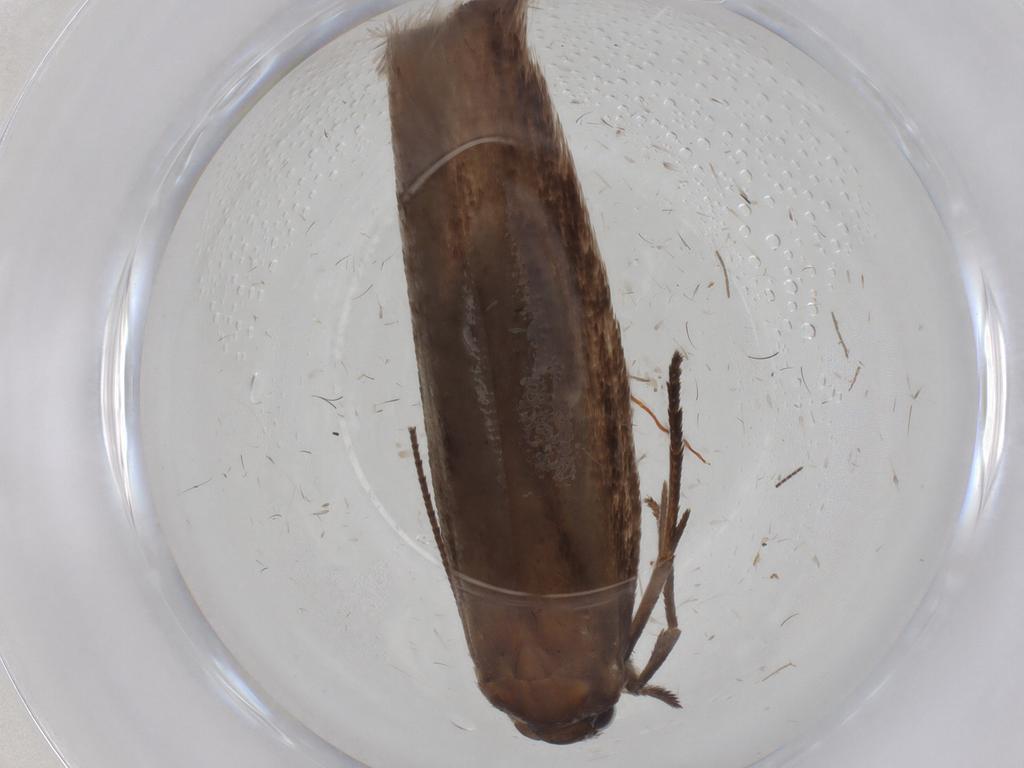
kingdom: Animalia
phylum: Arthropoda
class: Insecta
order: Lepidoptera
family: Roeslerstammiidae
